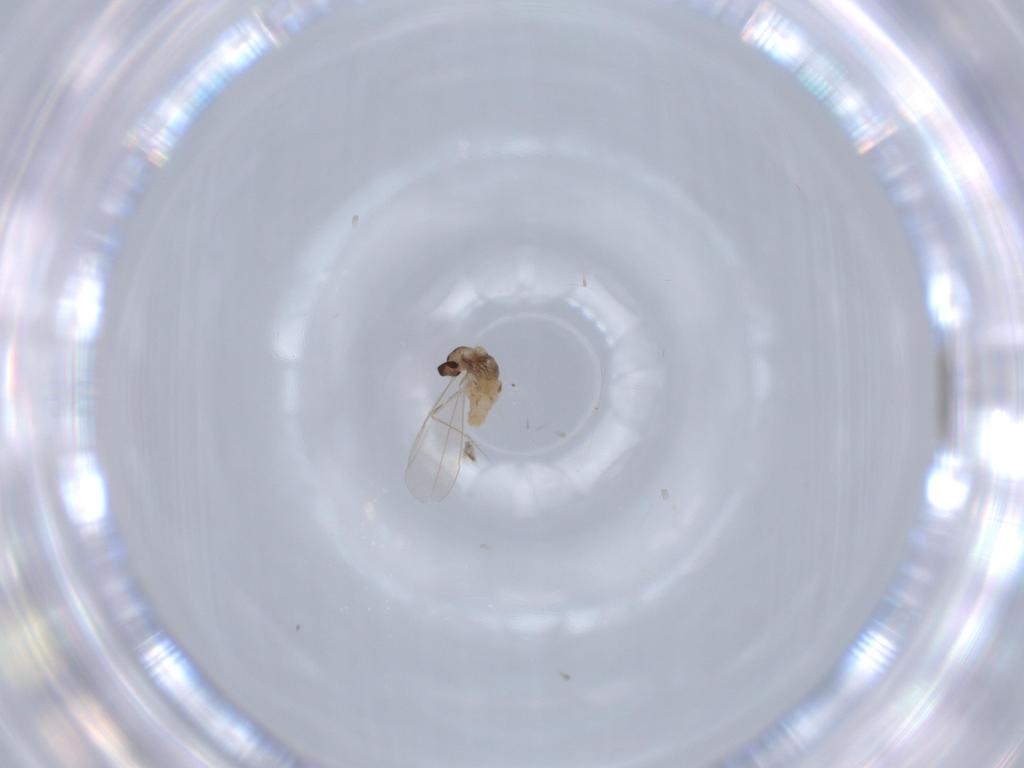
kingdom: Animalia
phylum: Arthropoda
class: Insecta
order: Diptera
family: Cecidomyiidae
